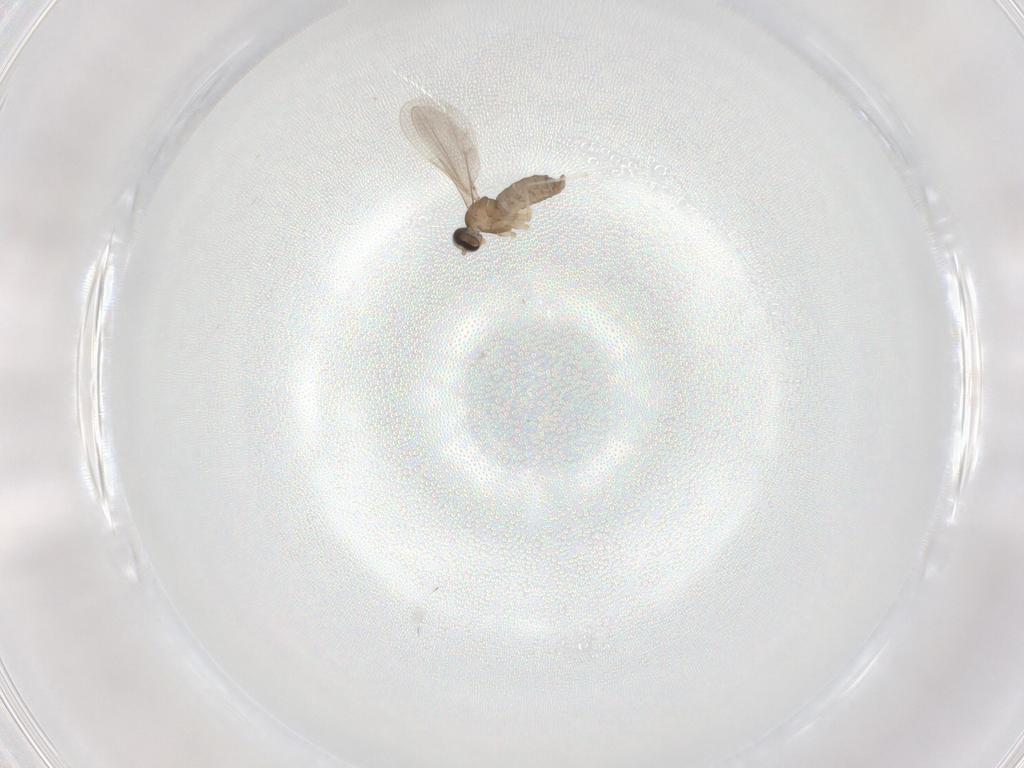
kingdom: Animalia
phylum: Arthropoda
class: Insecta
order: Diptera
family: Cecidomyiidae
